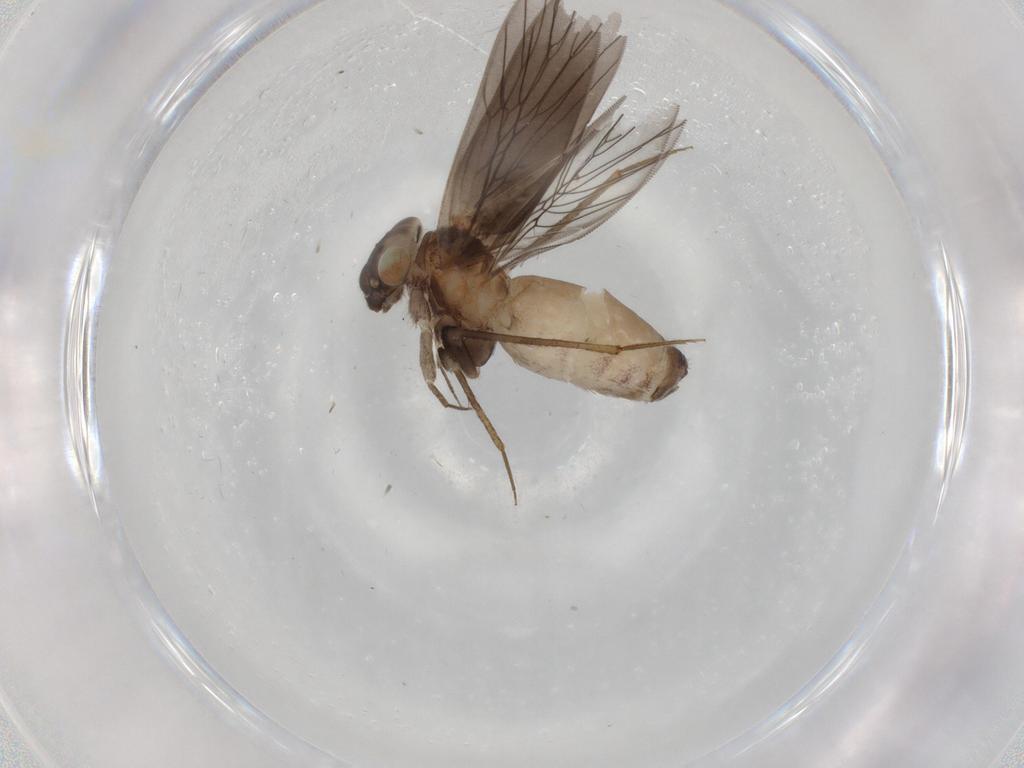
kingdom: Animalia
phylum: Arthropoda
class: Insecta
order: Psocodea
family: Lepidopsocidae
